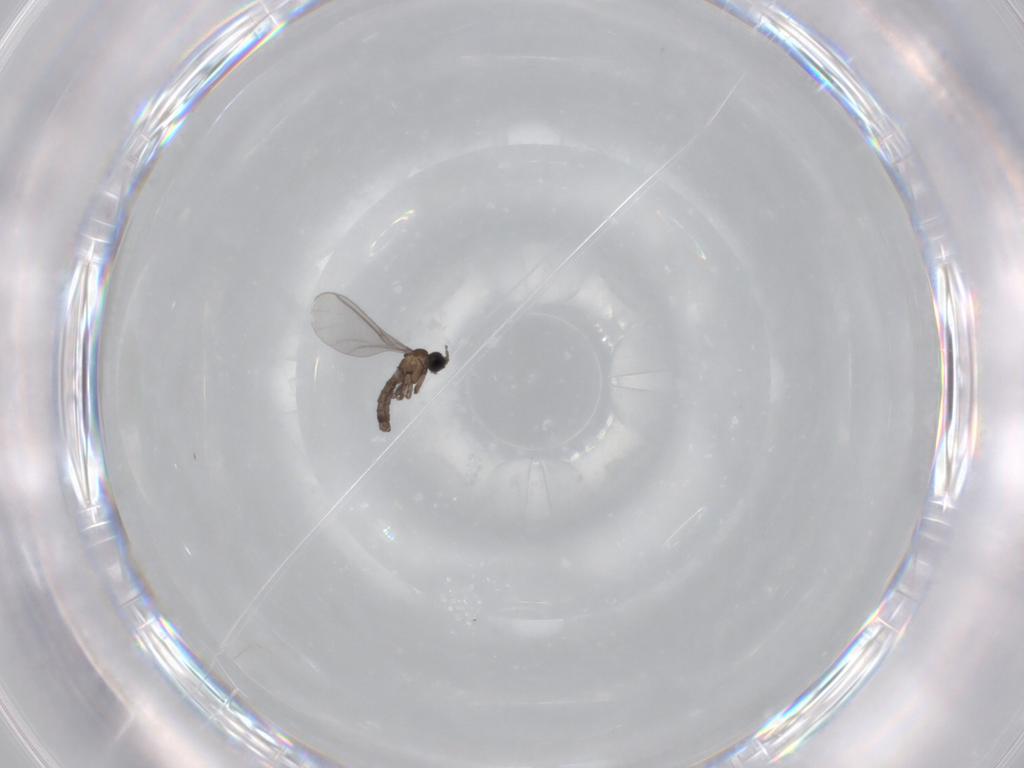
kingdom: Animalia
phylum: Arthropoda
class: Insecta
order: Diptera
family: Sciaridae
